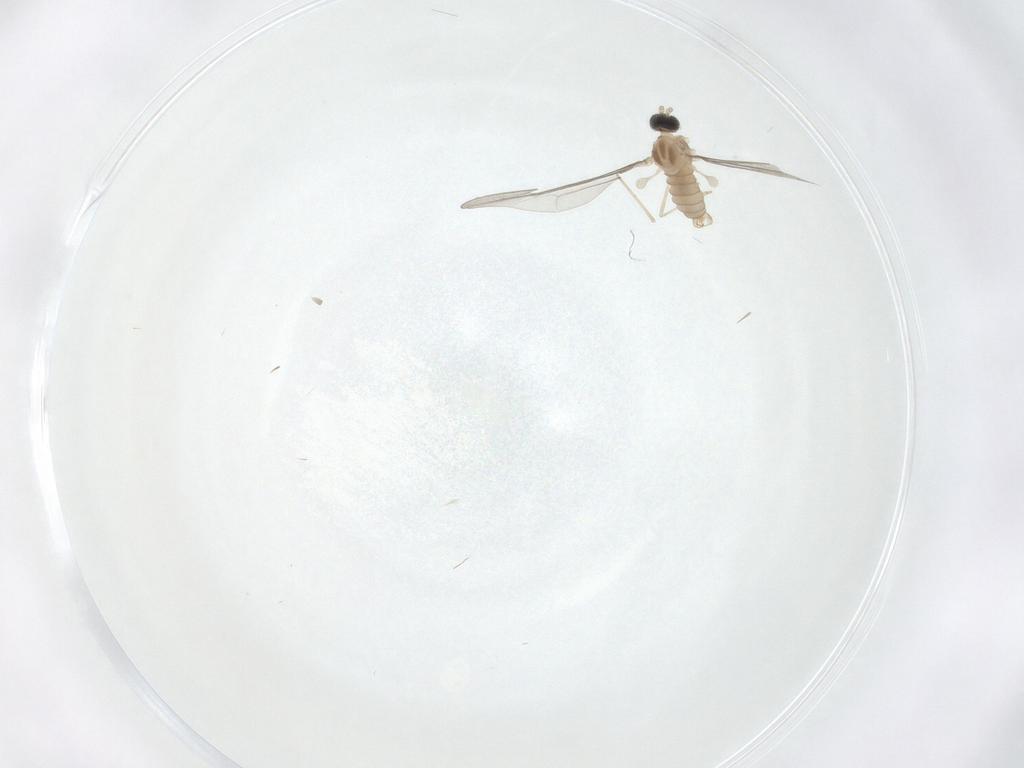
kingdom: Animalia
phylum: Arthropoda
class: Insecta
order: Diptera
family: Cecidomyiidae
